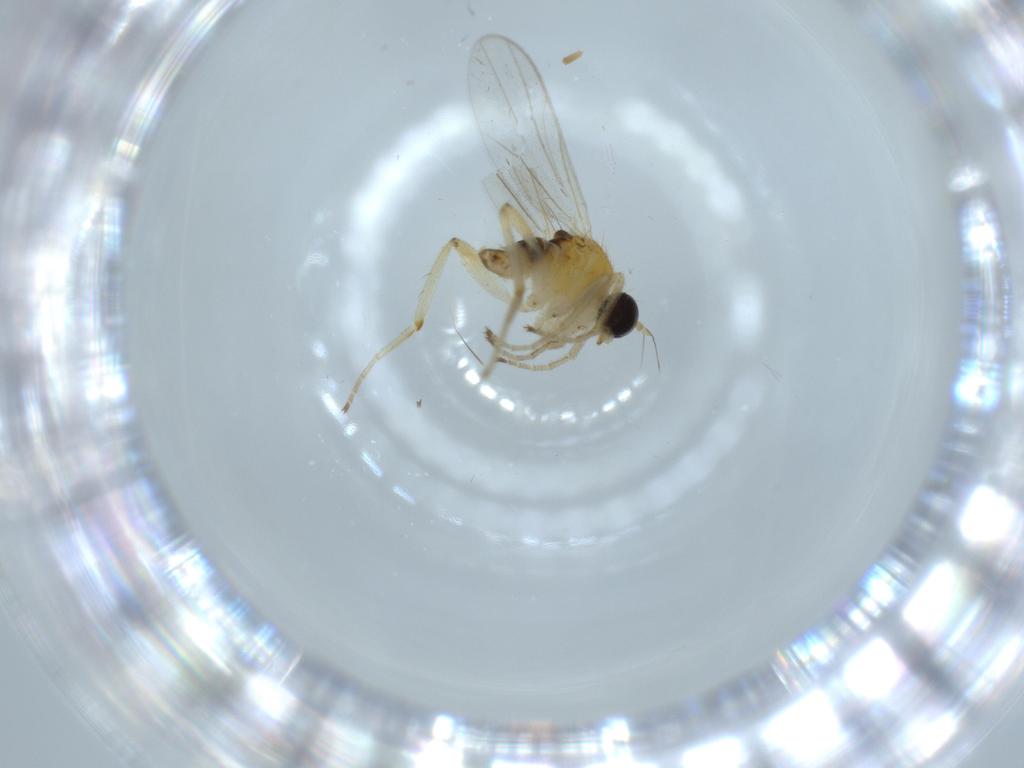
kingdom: Animalia
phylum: Arthropoda
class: Insecta
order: Diptera
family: Hybotidae
